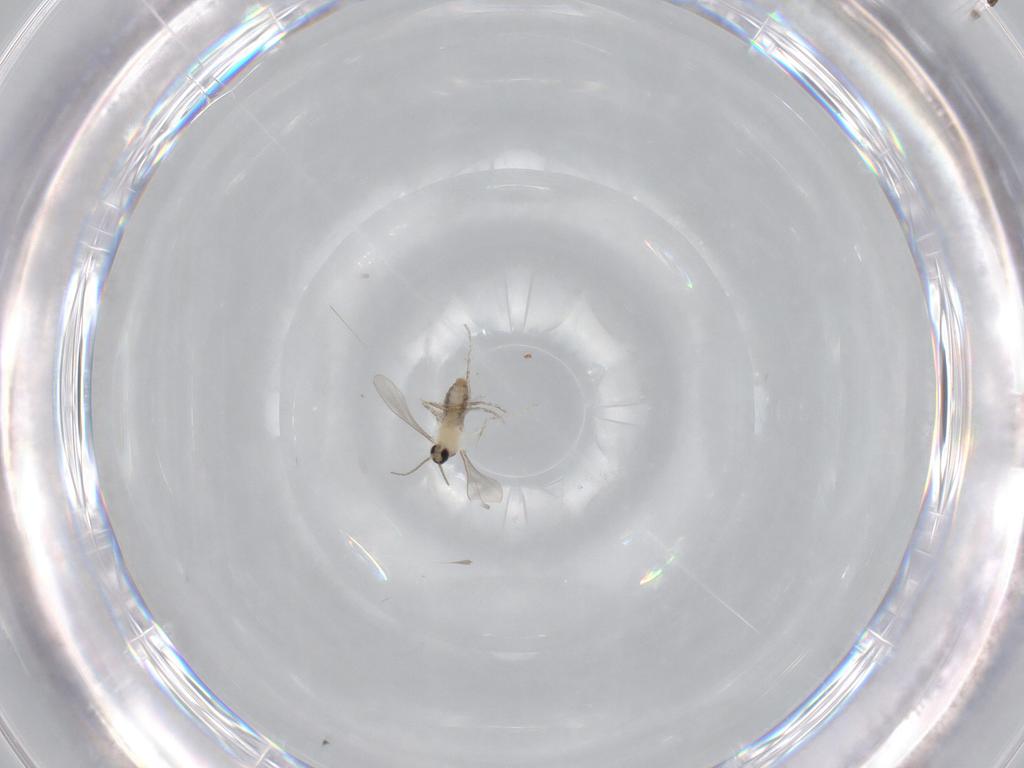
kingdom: Animalia
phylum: Arthropoda
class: Insecta
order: Diptera
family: Cecidomyiidae
